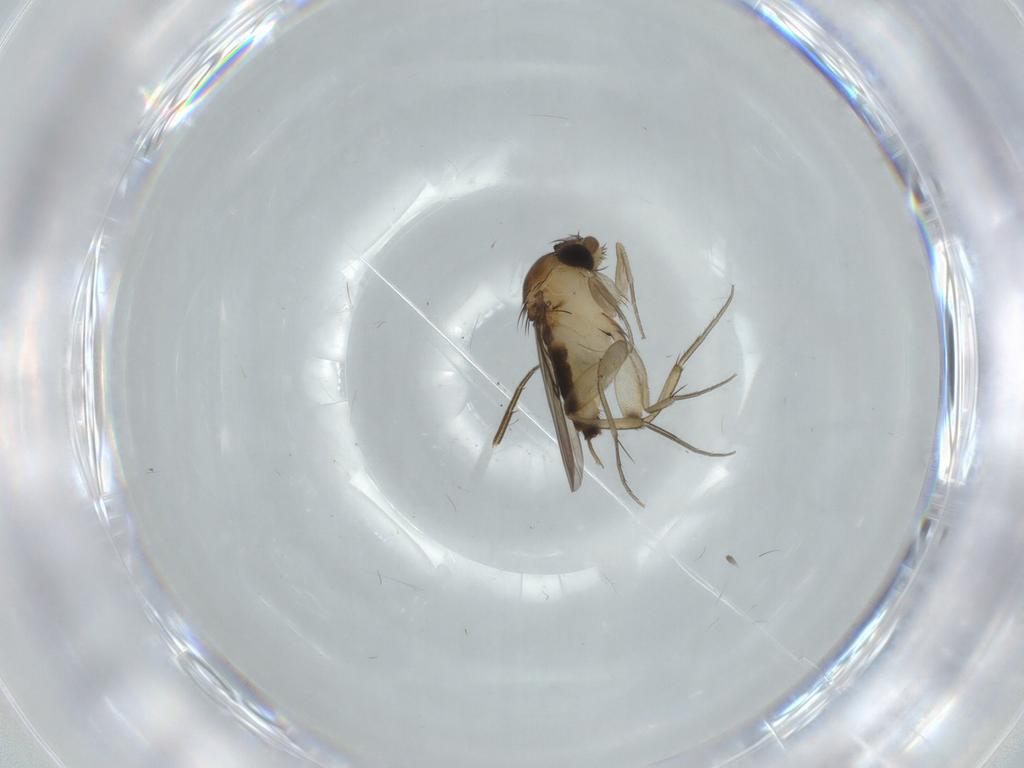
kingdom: Animalia
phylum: Arthropoda
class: Insecta
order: Diptera
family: Phoridae
